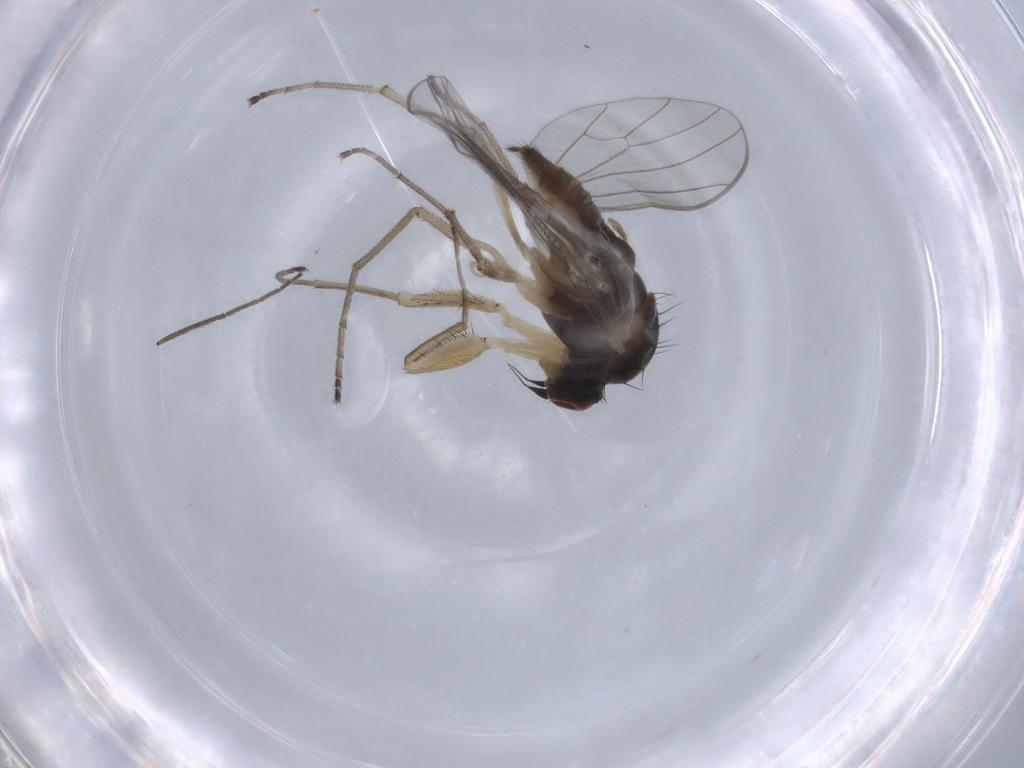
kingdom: Animalia
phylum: Arthropoda
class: Insecta
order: Diptera
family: Empididae
